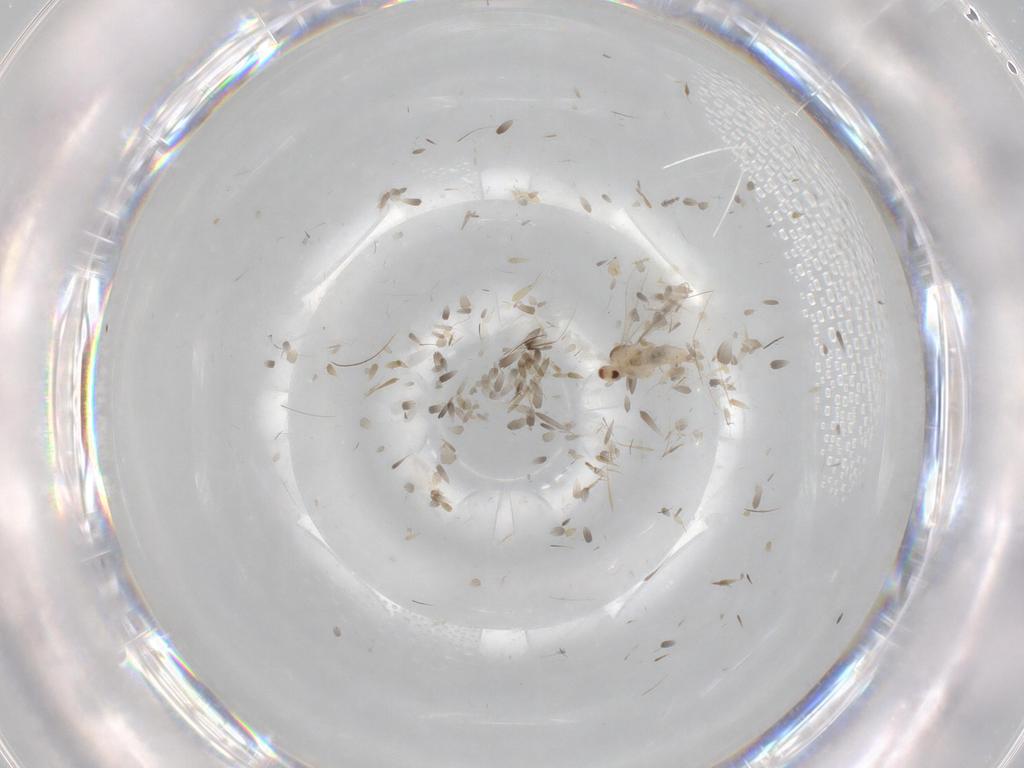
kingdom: Animalia
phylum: Arthropoda
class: Insecta
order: Diptera
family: Cecidomyiidae
